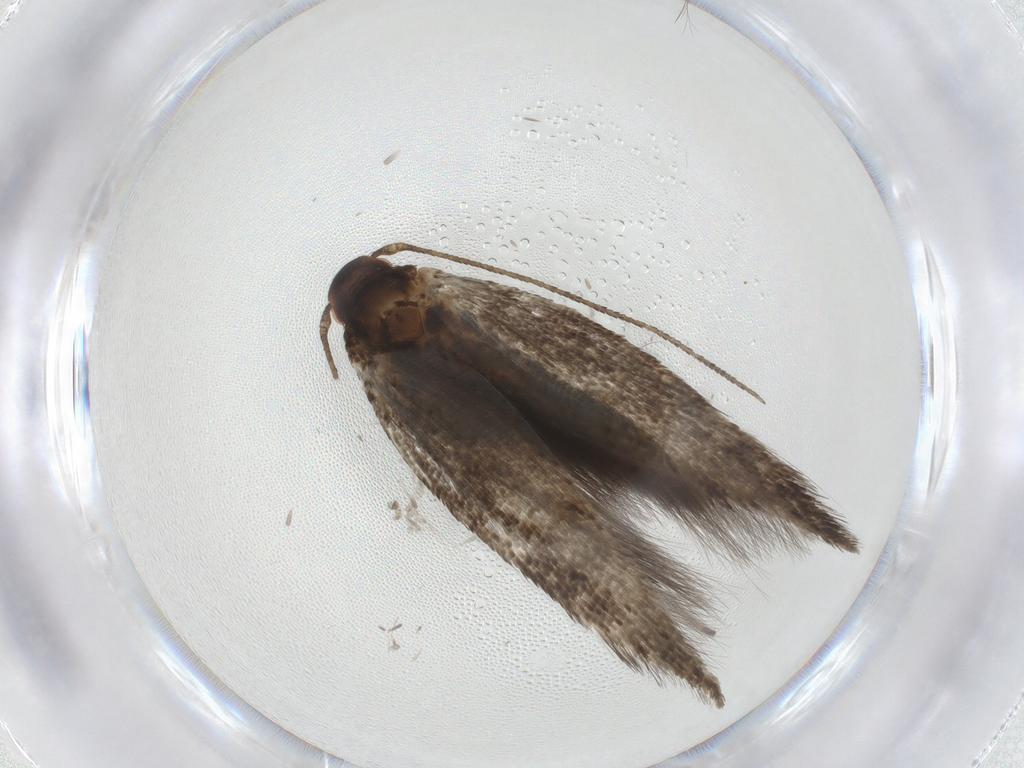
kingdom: Animalia
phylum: Arthropoda
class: Insecta
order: Lepidoptera
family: Momphidae
